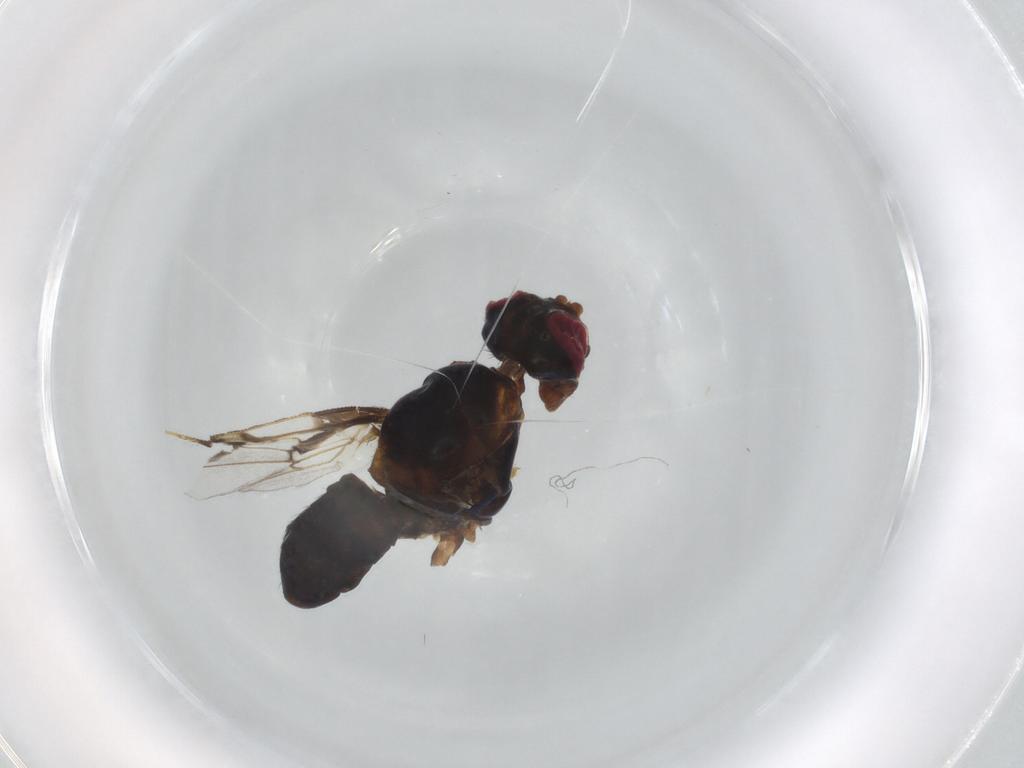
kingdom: Animalia
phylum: Arthropoda
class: Insecta
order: Diptera
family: Platystomatidae
